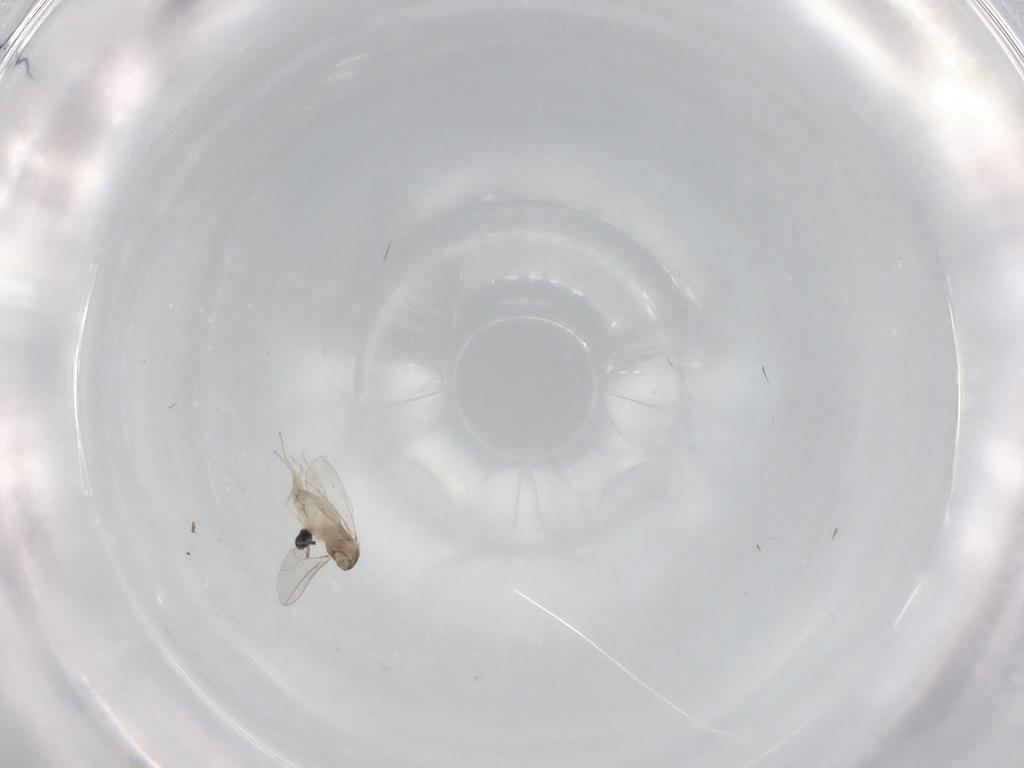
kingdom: Animalia
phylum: Arthropoda
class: Insecta
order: Diptera
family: Cecidomyiidae
